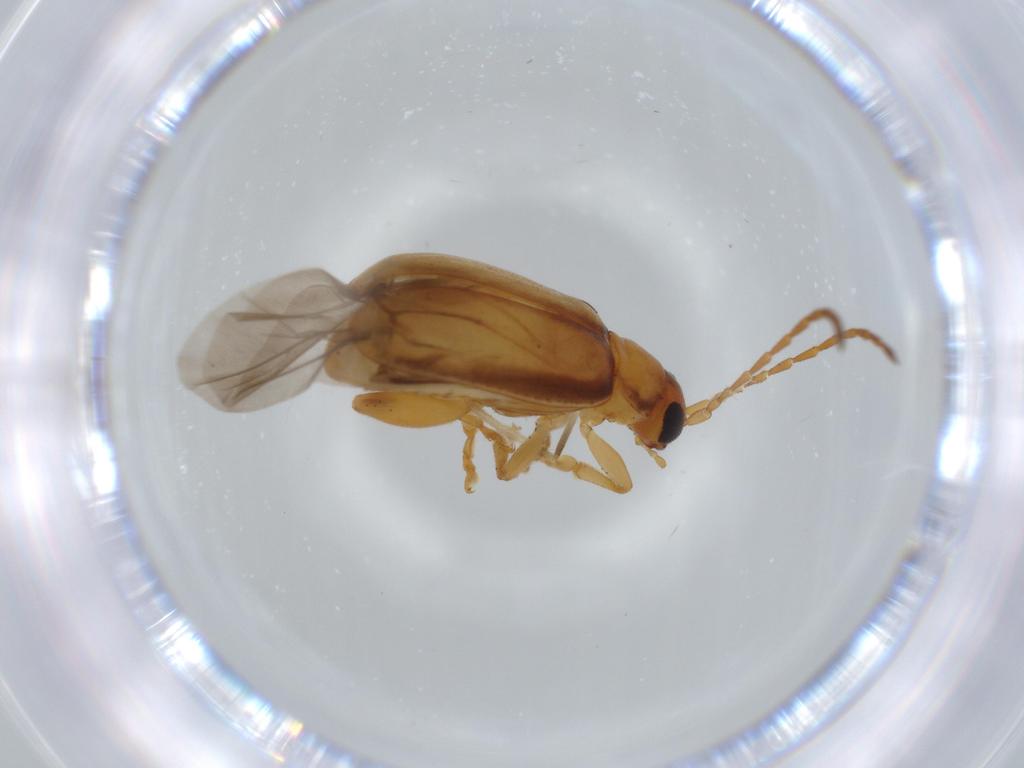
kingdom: Animalia
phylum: Arthropoda
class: Insecta
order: Coleoptera
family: Chrysomelidae
